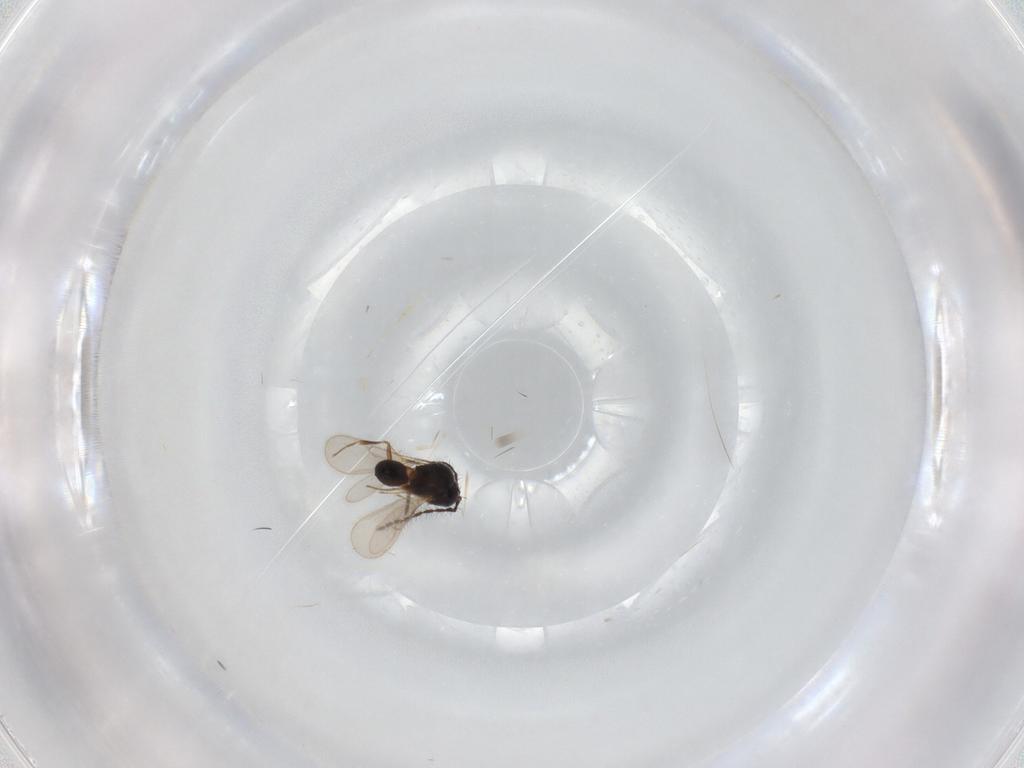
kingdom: Animalia
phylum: Arthropoda
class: Insecta
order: Hymenoptera
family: Scelionidae
